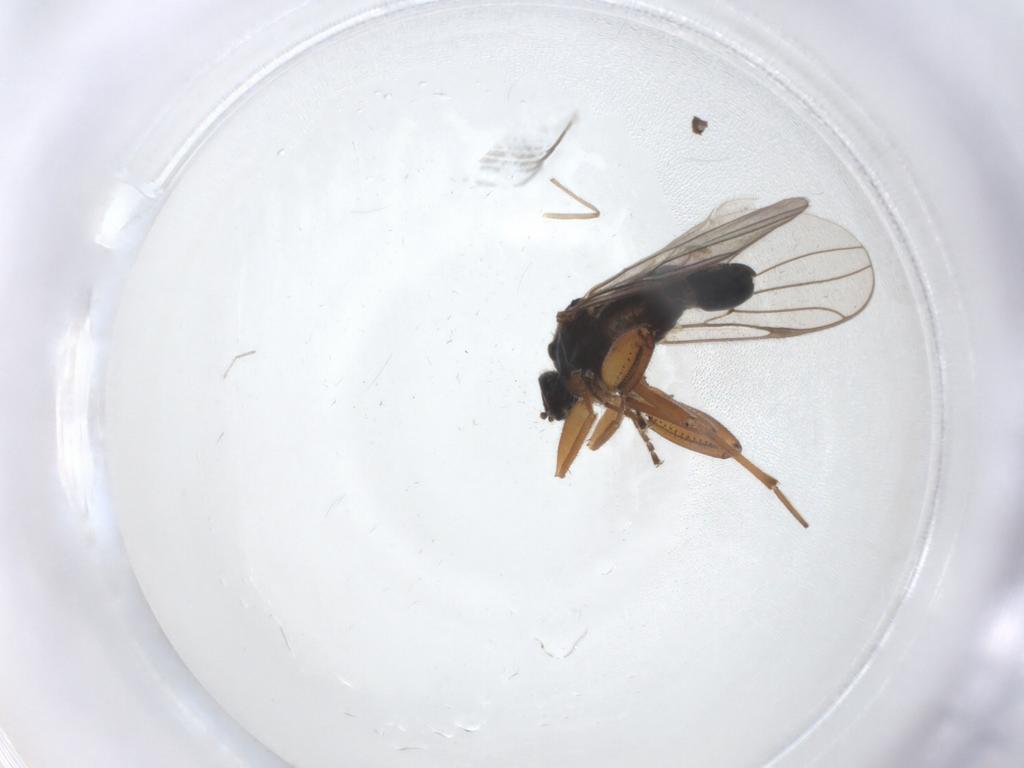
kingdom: Animalia
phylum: Arthropoda
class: Insecta
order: Diptera
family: Hybotidae
